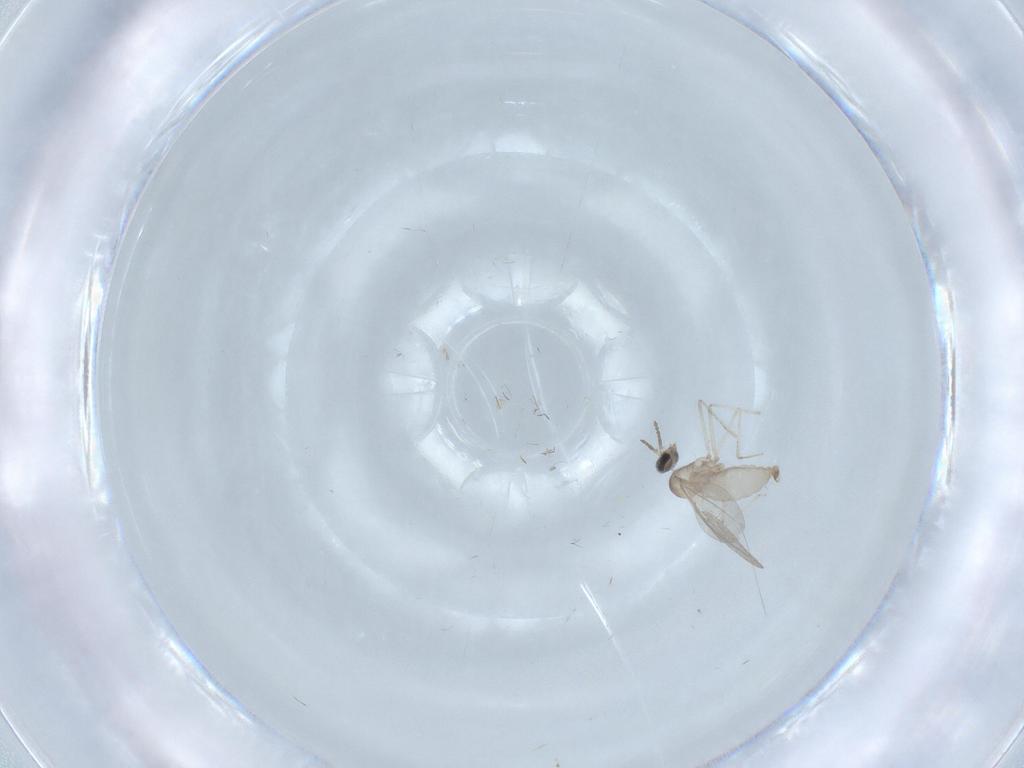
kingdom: Animalia
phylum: Arthropoda
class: Insecta
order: Diptera
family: Cecidomyiidae
